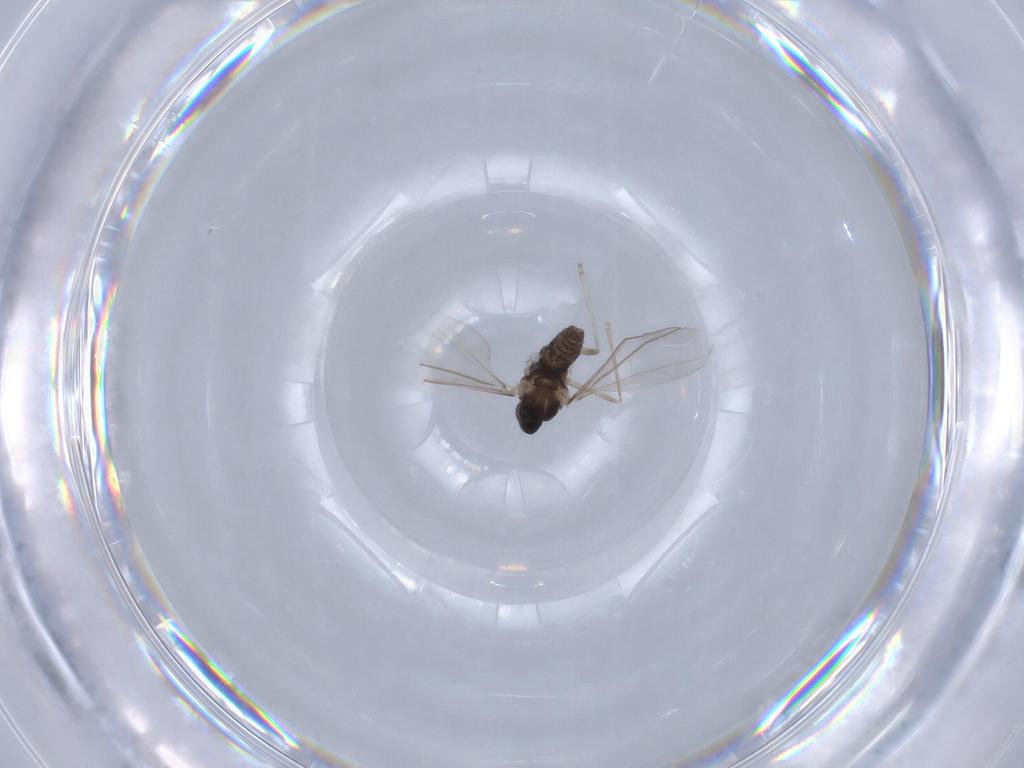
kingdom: Animalia
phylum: Arthropoda
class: Insecta
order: Diptera
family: Cecidomyiidae
